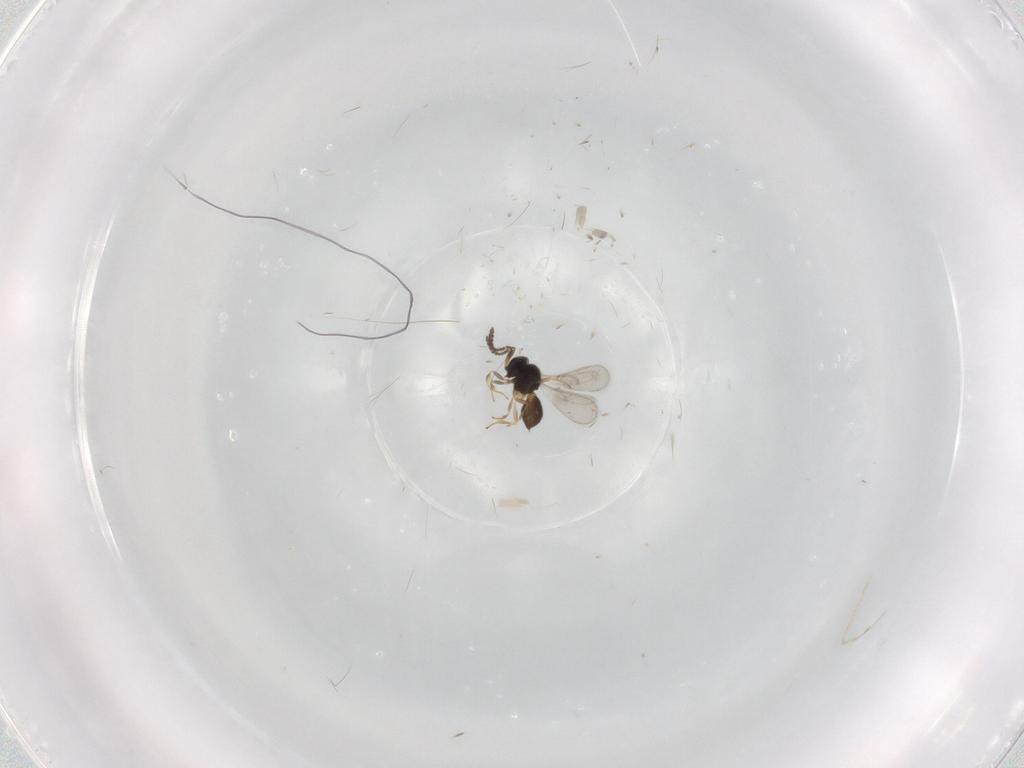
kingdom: Animalia
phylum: Arthropoda
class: Insecta
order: Hymenoptera
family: Scelionidae
